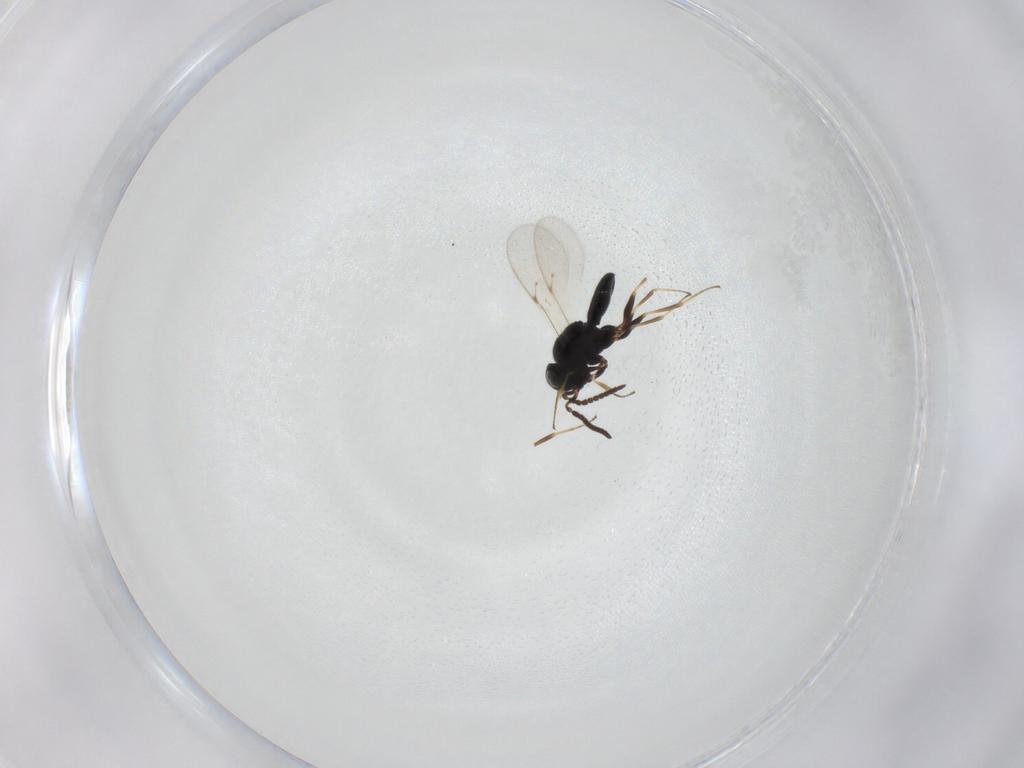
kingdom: Animalia
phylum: Arthropoda
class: Insecta
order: Hymenoptera
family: Scelionidae
